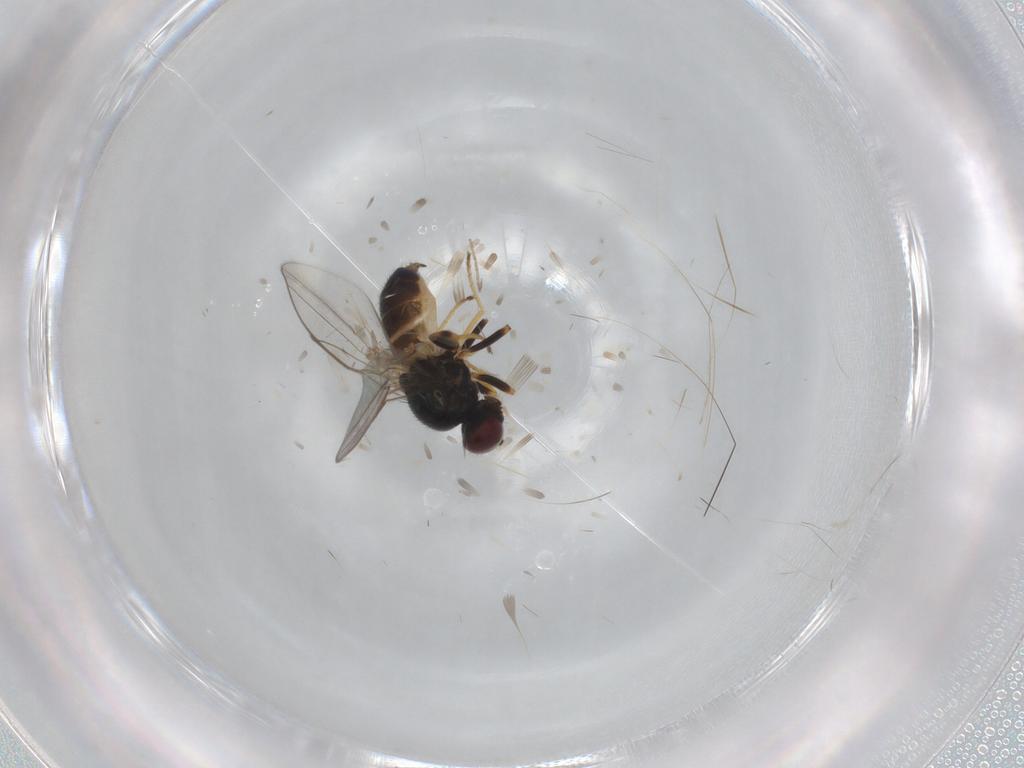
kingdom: Animalia
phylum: Arthropoda
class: Insecta
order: Diptera
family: Chloropidae
